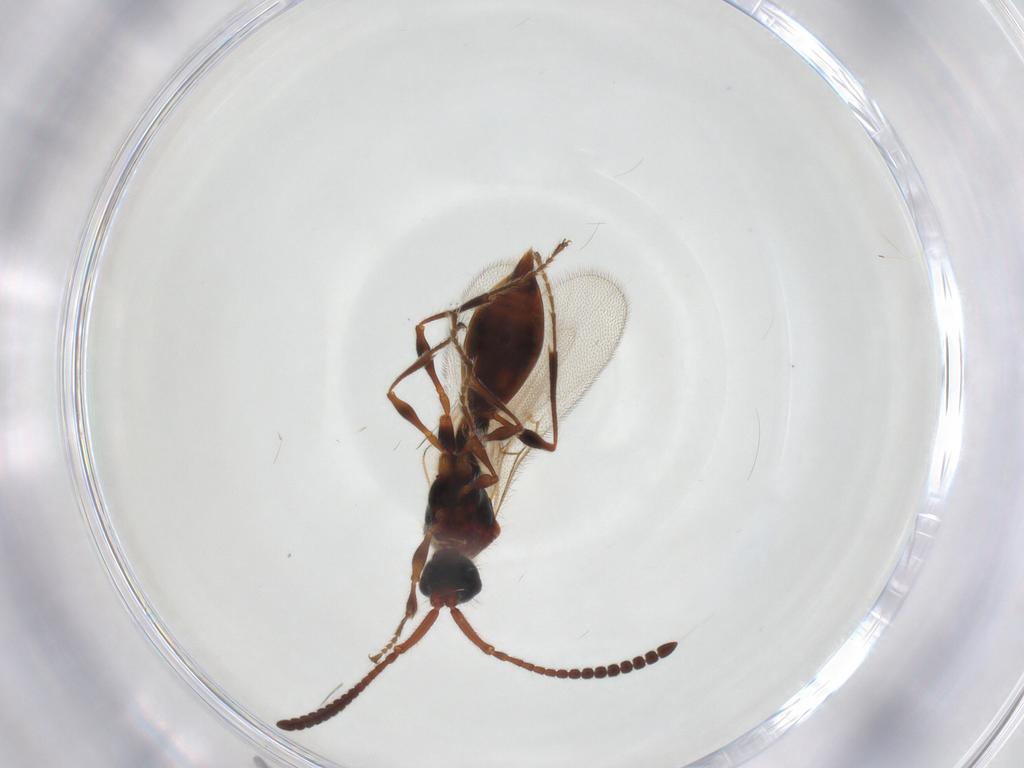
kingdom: Animalia
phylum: Arthropoda
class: Insecta
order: Hymenoptera
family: Diapriidae
